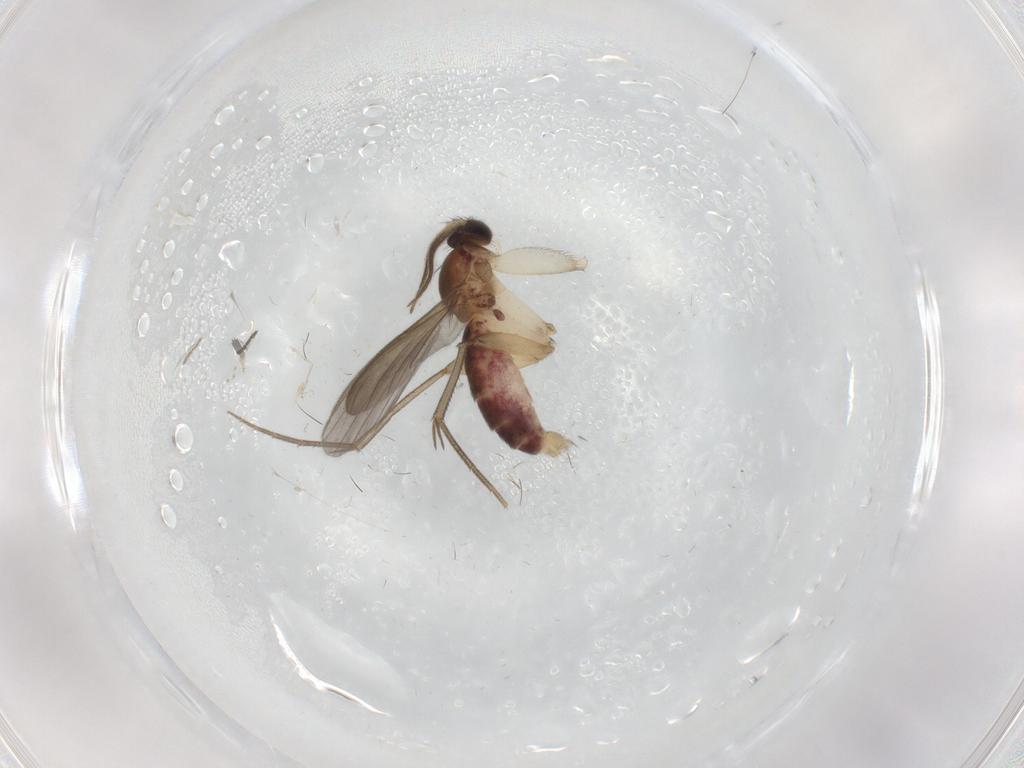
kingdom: Animalia
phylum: Arthropoda
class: Insecta
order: Diptera
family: Mycetophilidae
